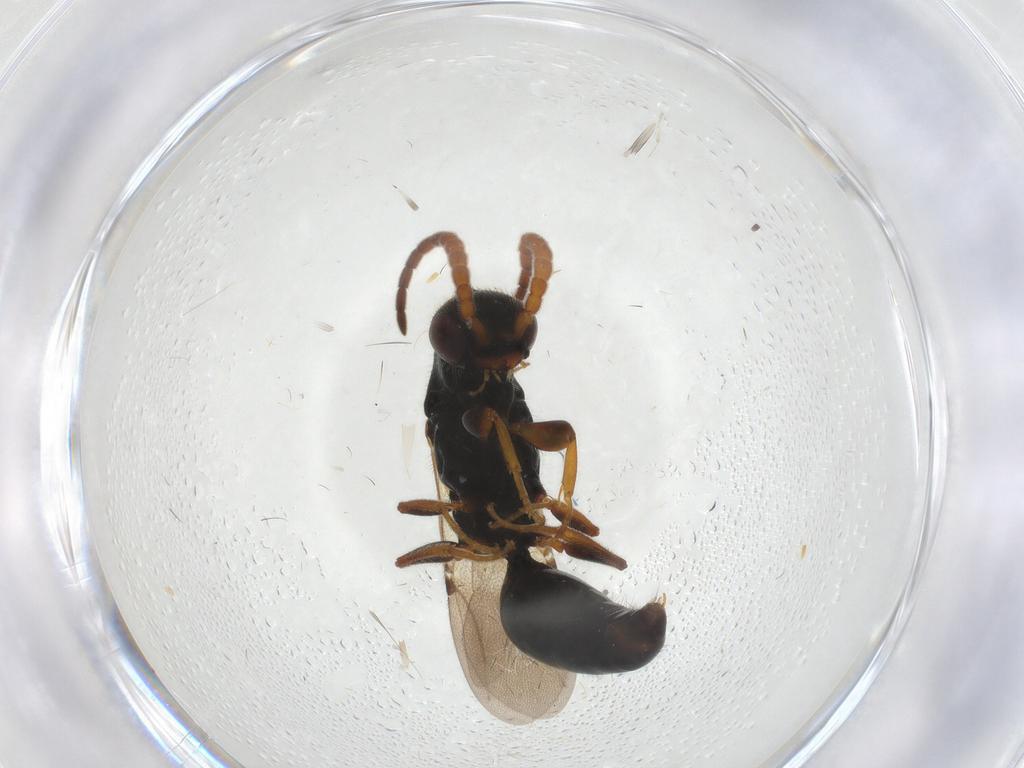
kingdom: Animalia
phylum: Arthropoda
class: Insecta
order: Hymenoptera
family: Bethylidae
